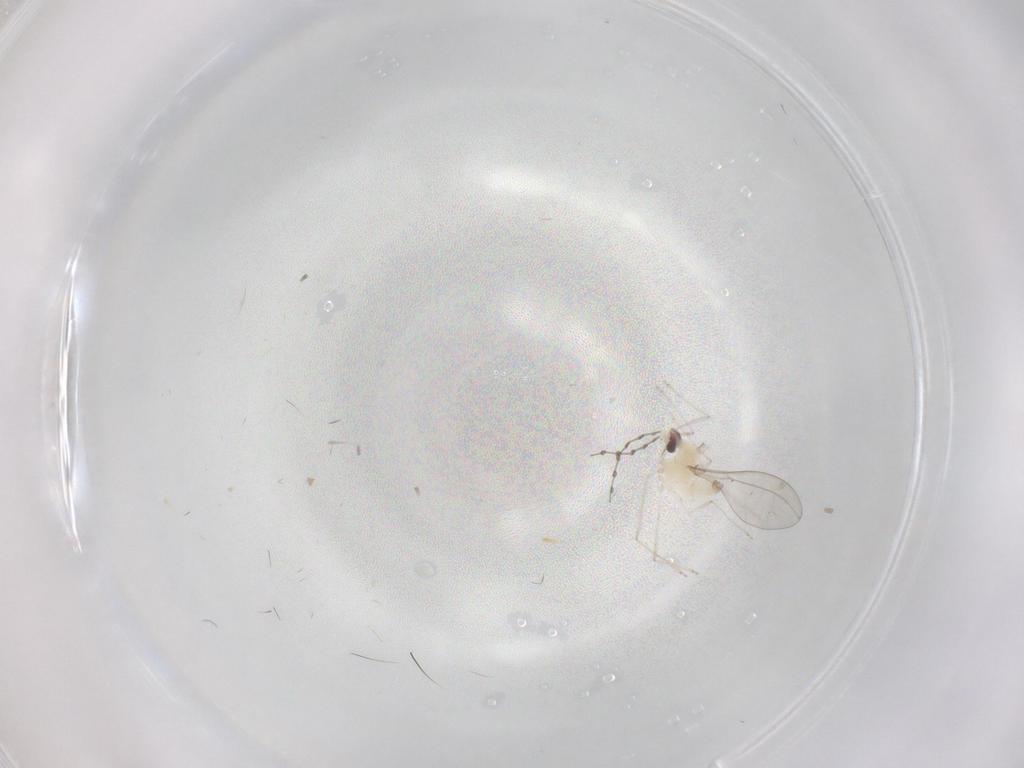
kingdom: Animalia
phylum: Arthropoda
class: Insecta
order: Diptera
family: Cecidomyiidae
